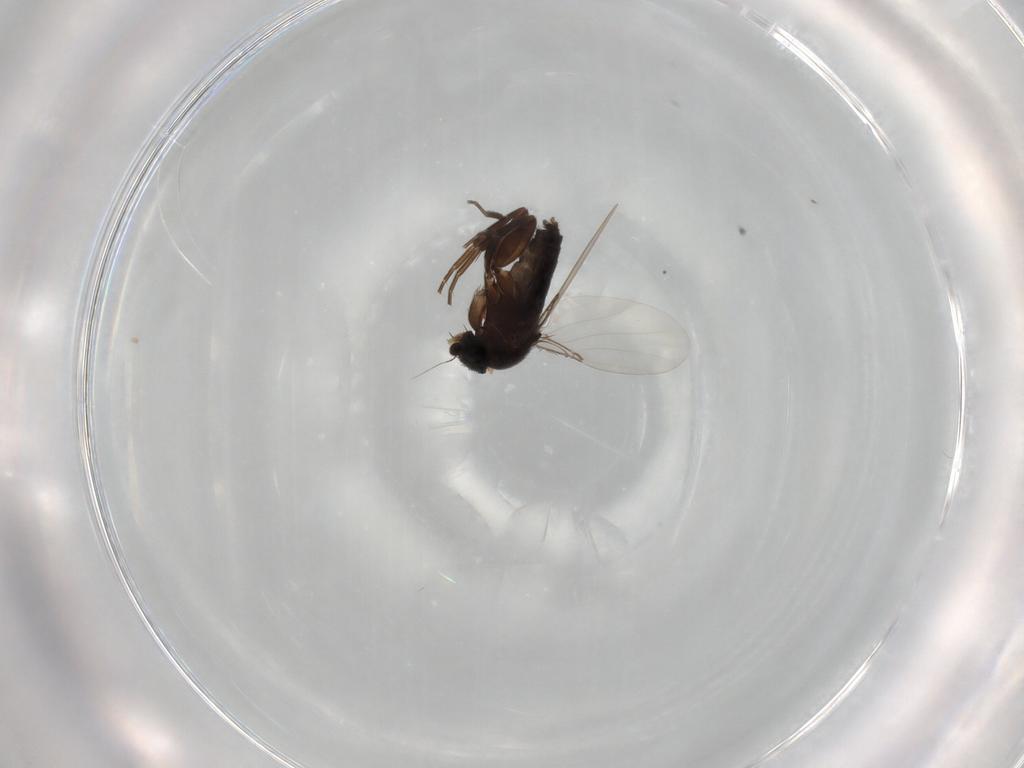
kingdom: Animalia
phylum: Arthropoda
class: Insecta
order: Diptera
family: Phoridae
